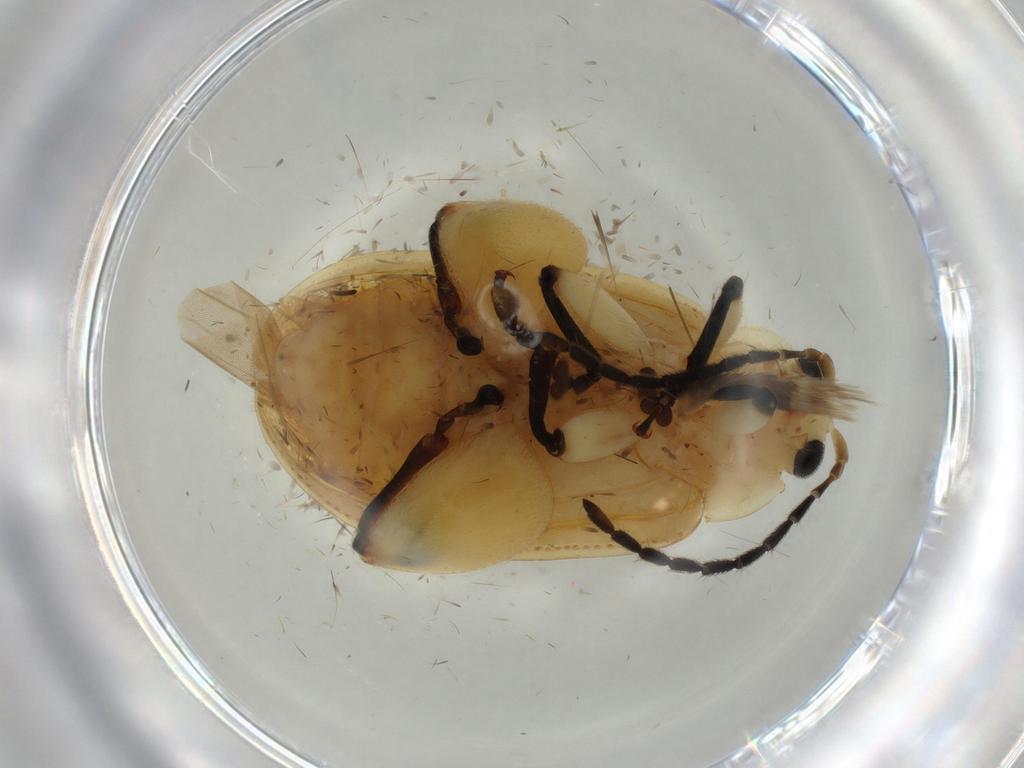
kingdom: Animalia
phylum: Arthropoda
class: Insecta
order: Coleoptera
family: Chrysomelidae
